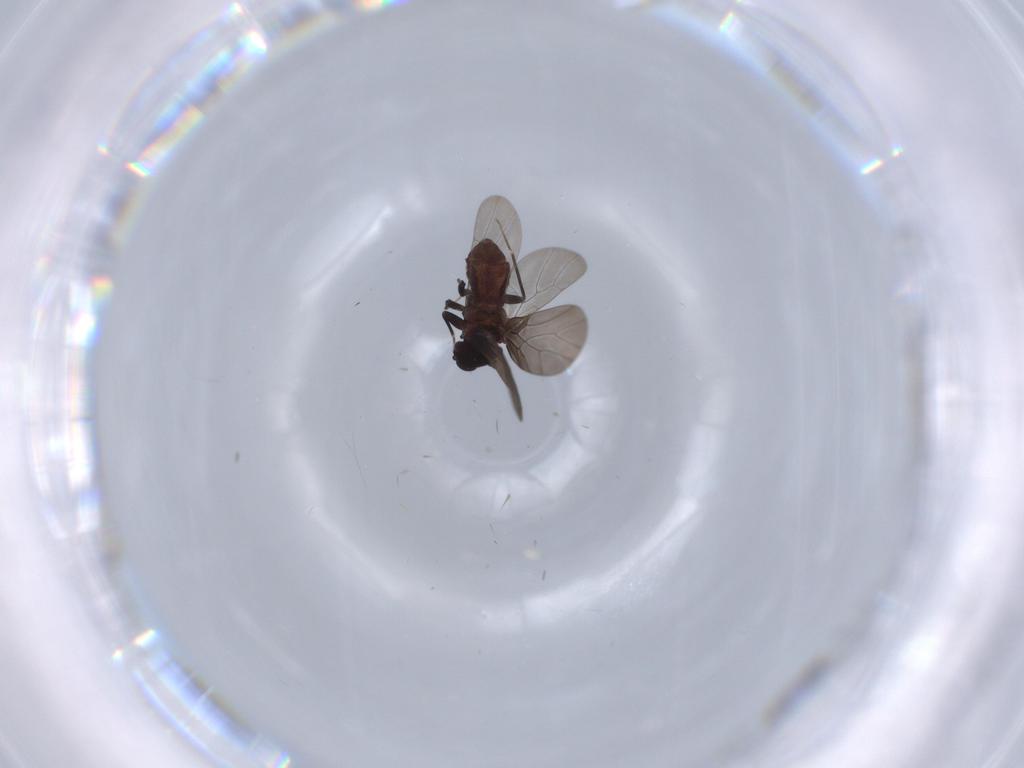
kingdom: Animalia
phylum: Arthropoda
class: Insecta
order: Psocodea
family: Lepidopsocidae
